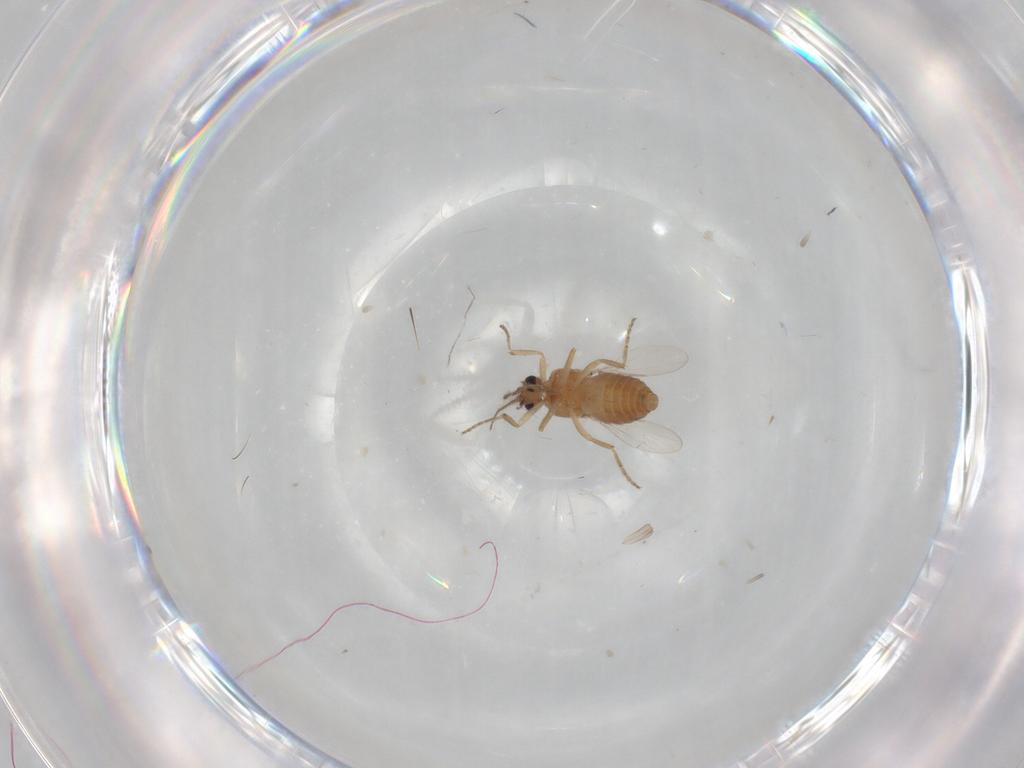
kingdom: Animalia
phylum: Arthropoda
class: Insecta
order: Diptera
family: Ceratopogonidae
